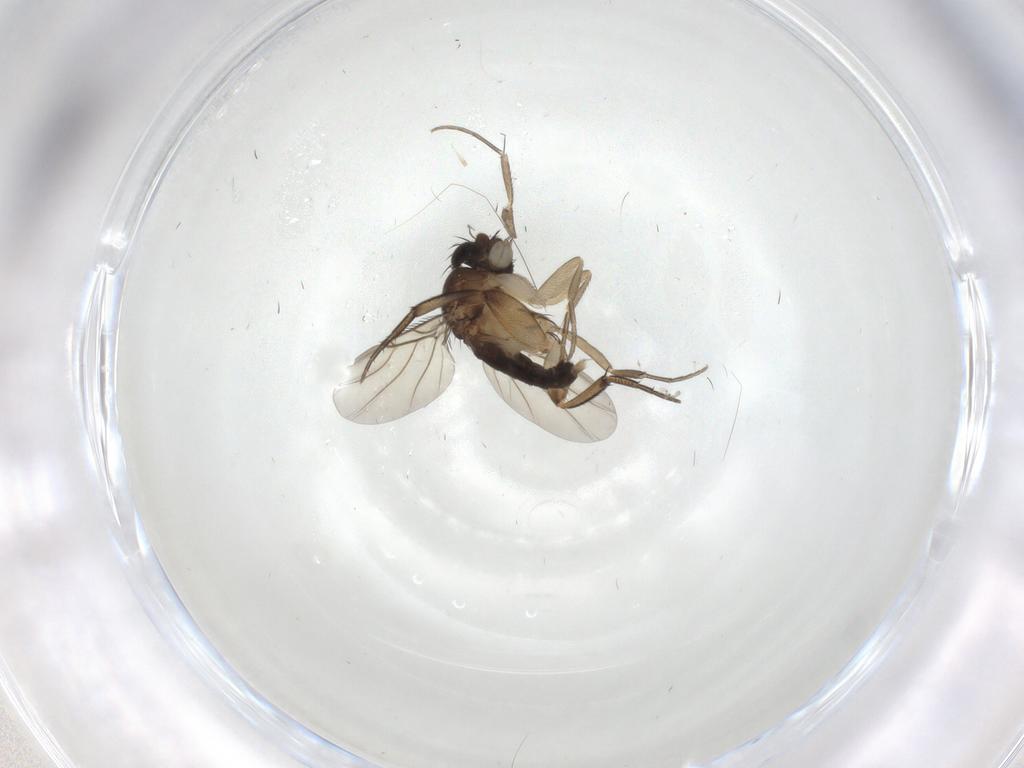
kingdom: Animalia
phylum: Arthropoda
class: Insecta
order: Diptera
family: Phoridae
